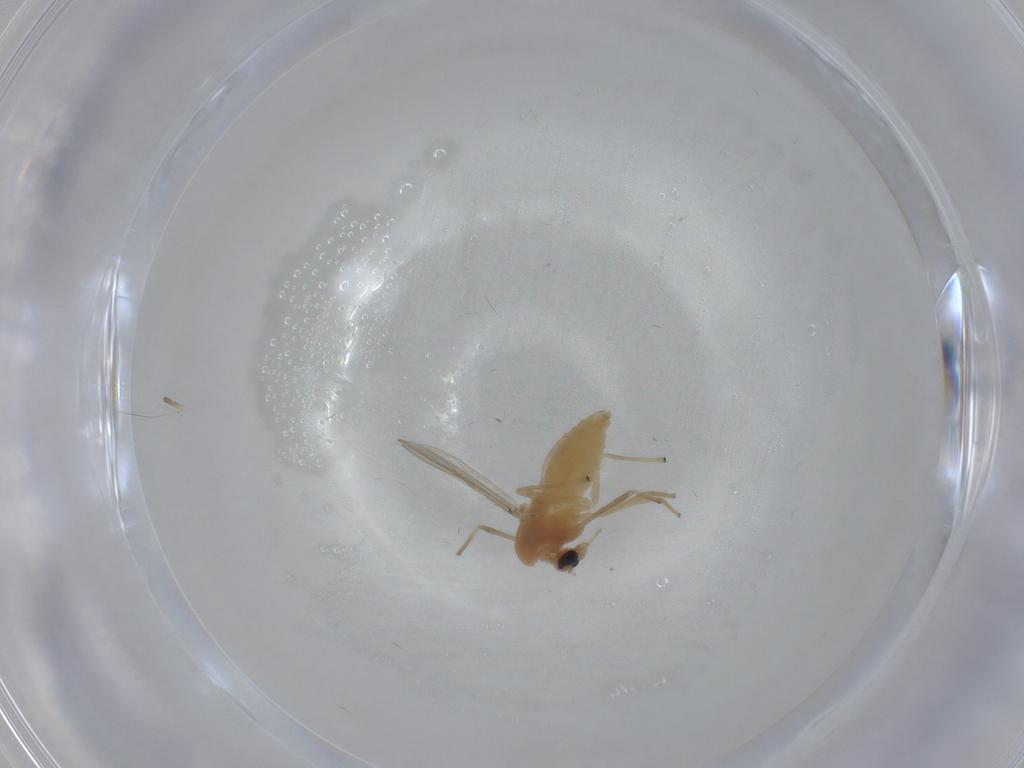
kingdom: Animalia
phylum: Arthropoda
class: Insecta
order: Diptera
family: Chironomidae
